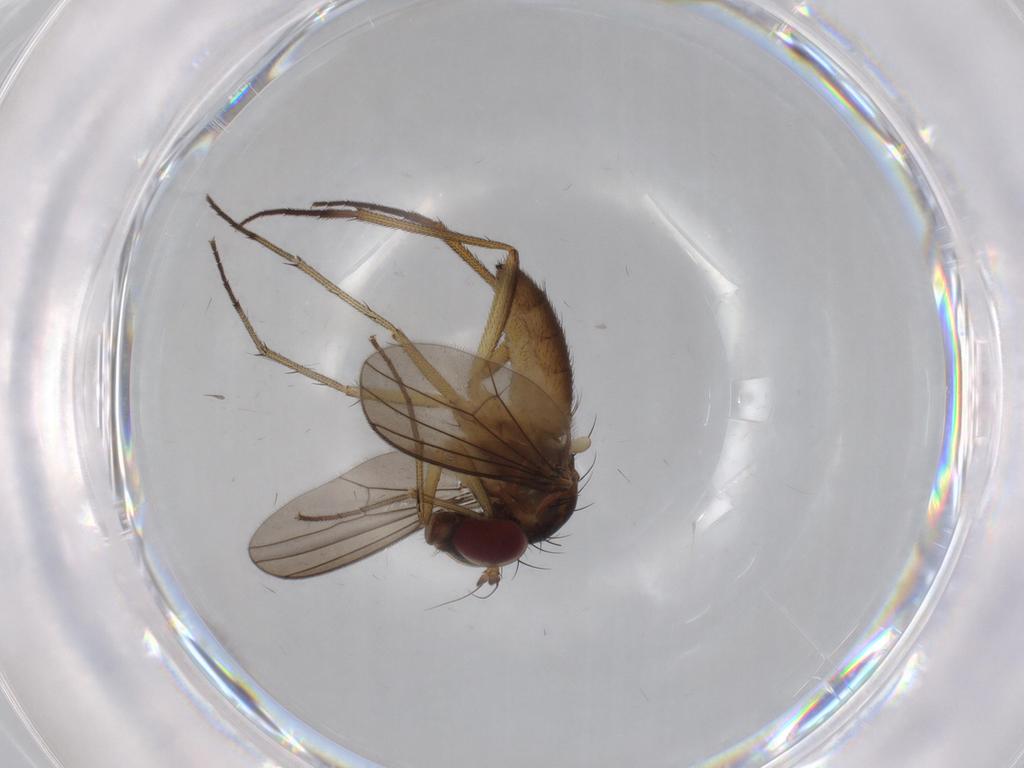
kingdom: Animalia
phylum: Arthropoda
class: Insecta
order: Diptera
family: Dolichopodidae
